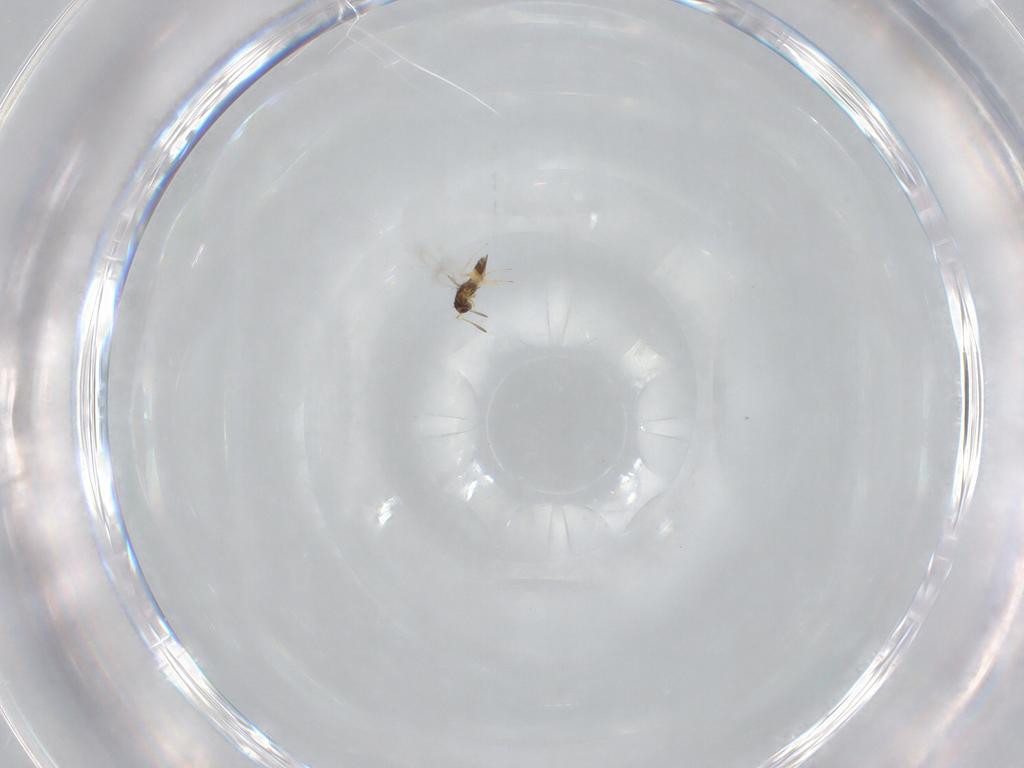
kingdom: Animalia
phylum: Arthropoda
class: Insecta
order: Hymenoptera
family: Mymaridae
